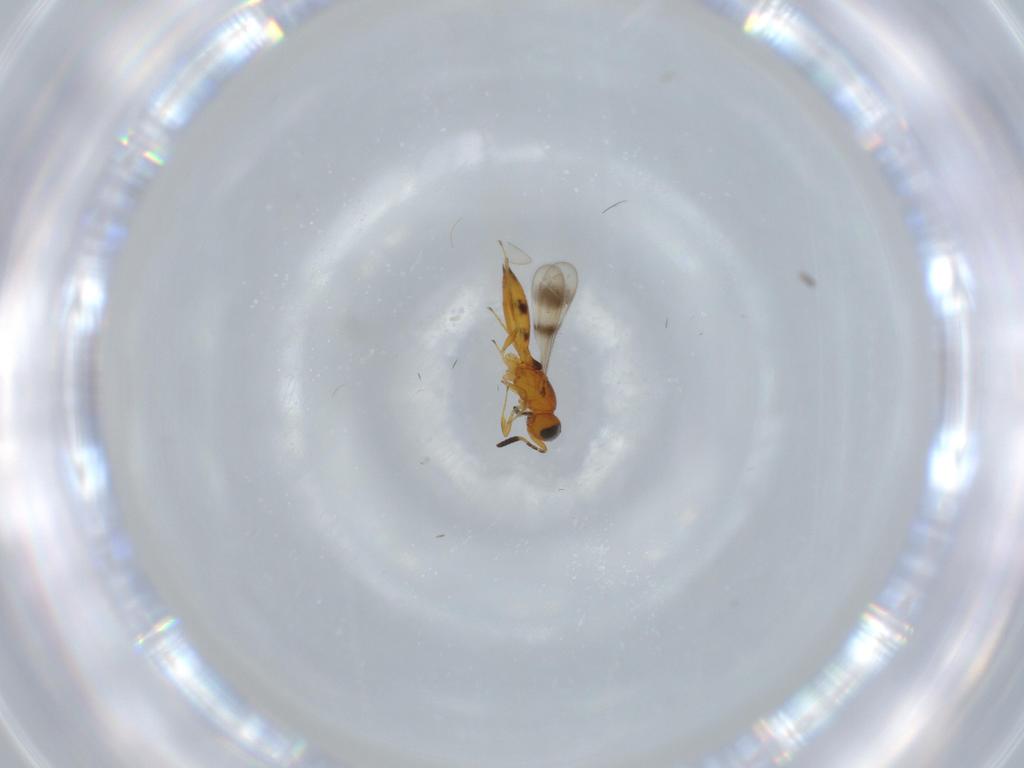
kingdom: Animalia
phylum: Arthropoda
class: Insecta
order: Hymenoptera
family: Scelionidae
